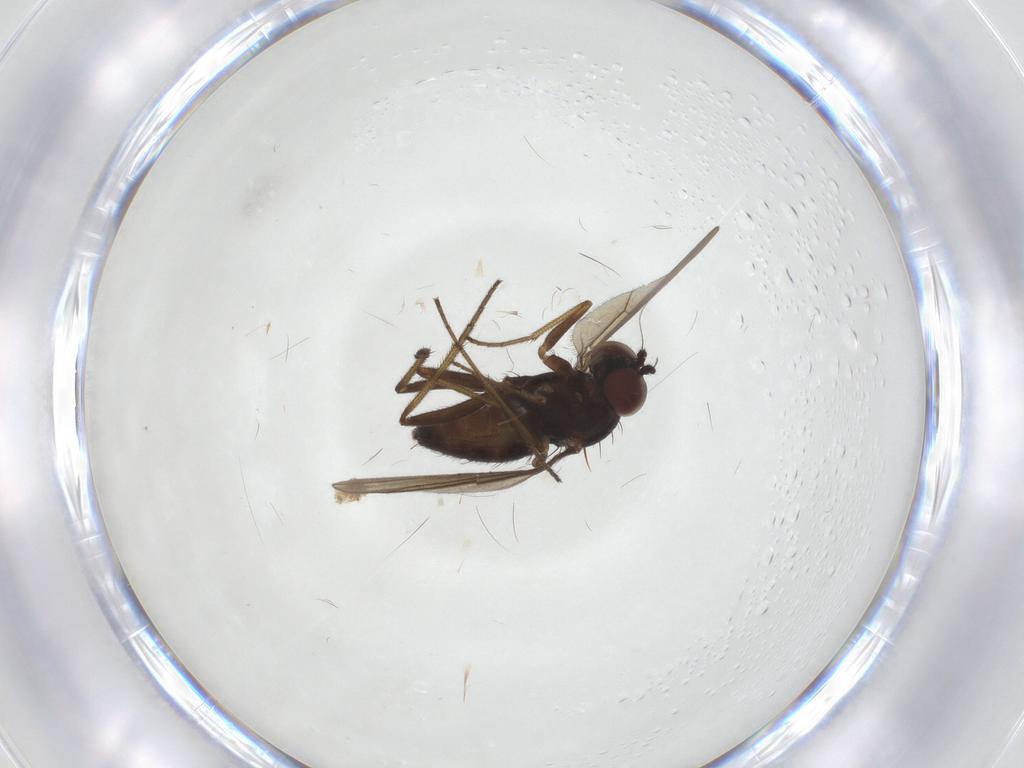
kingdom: Animalia
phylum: Arthropoda
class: Insecta
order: Diptera
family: Dolichopodidae
